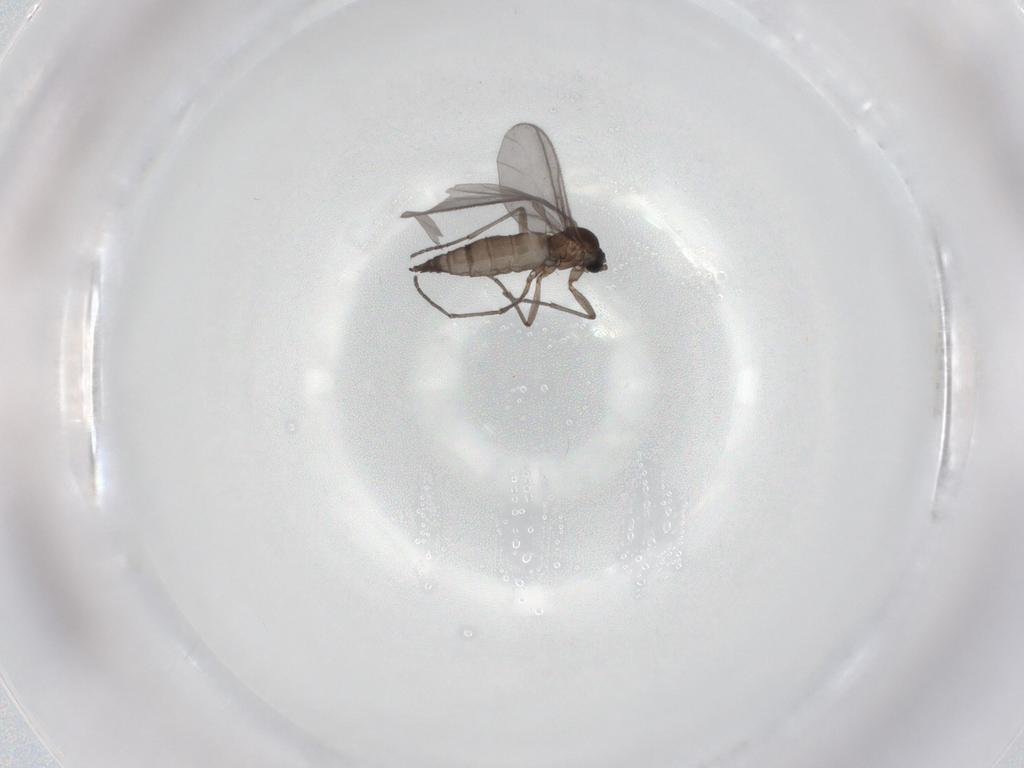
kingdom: Animalia
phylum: Arthropoda
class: Insecta
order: Diptera
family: Sciaridae
